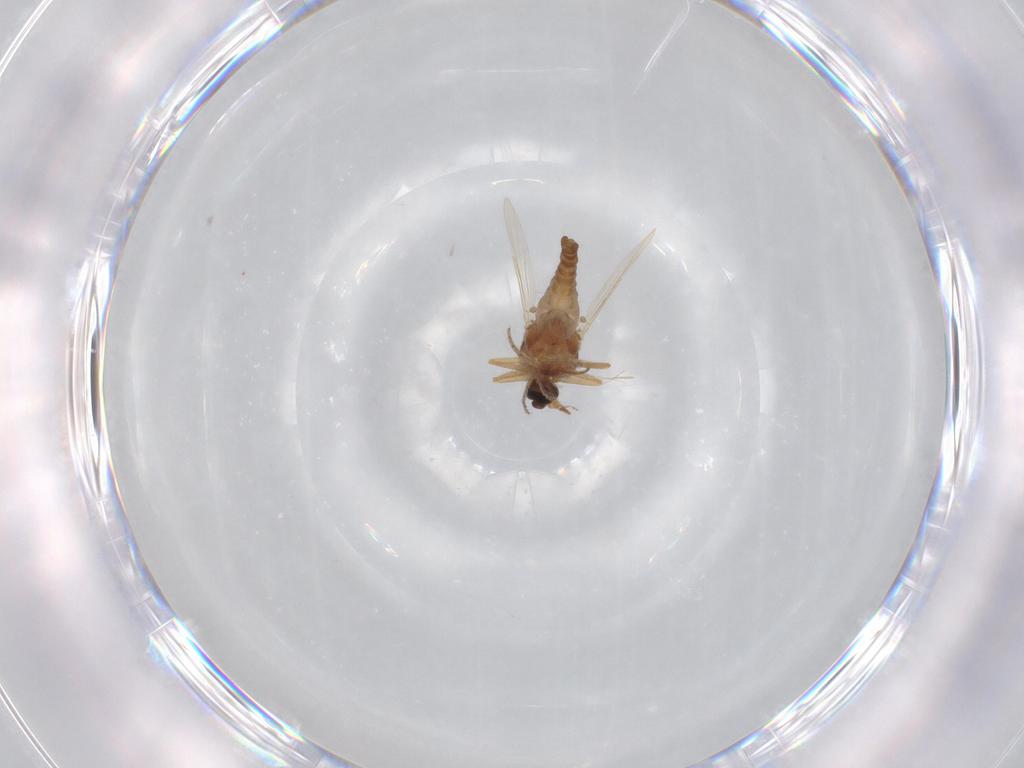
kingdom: Animalia
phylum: Arthropoda
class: Insecta
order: Diptera
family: Ceratopogonidae
